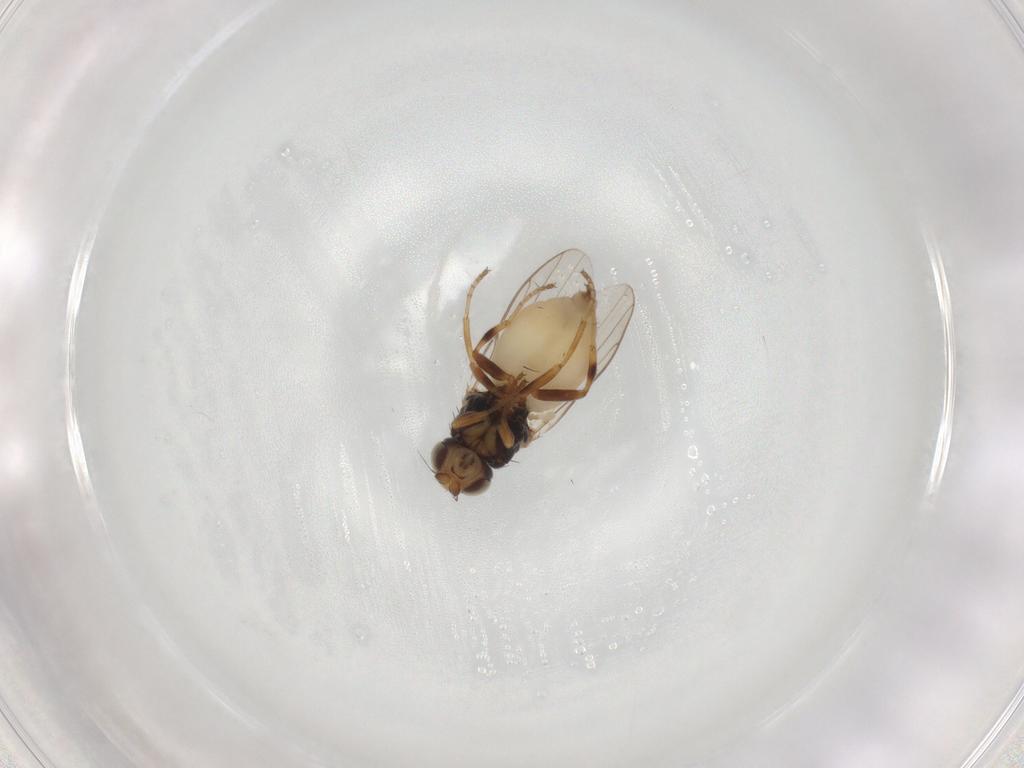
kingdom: Animalia
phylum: Arthropoda
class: Insecta
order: Diptera
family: Chloropidae
